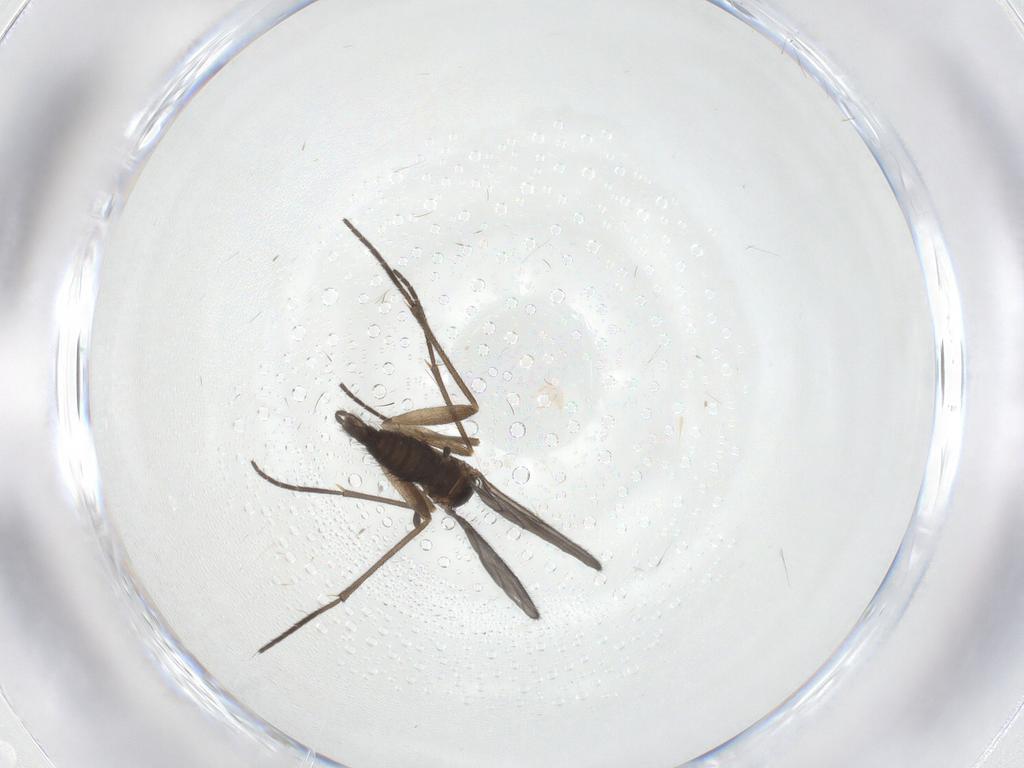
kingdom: Animalia
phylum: Arthropoda
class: Insecta
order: Diptera
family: Sciaridae
